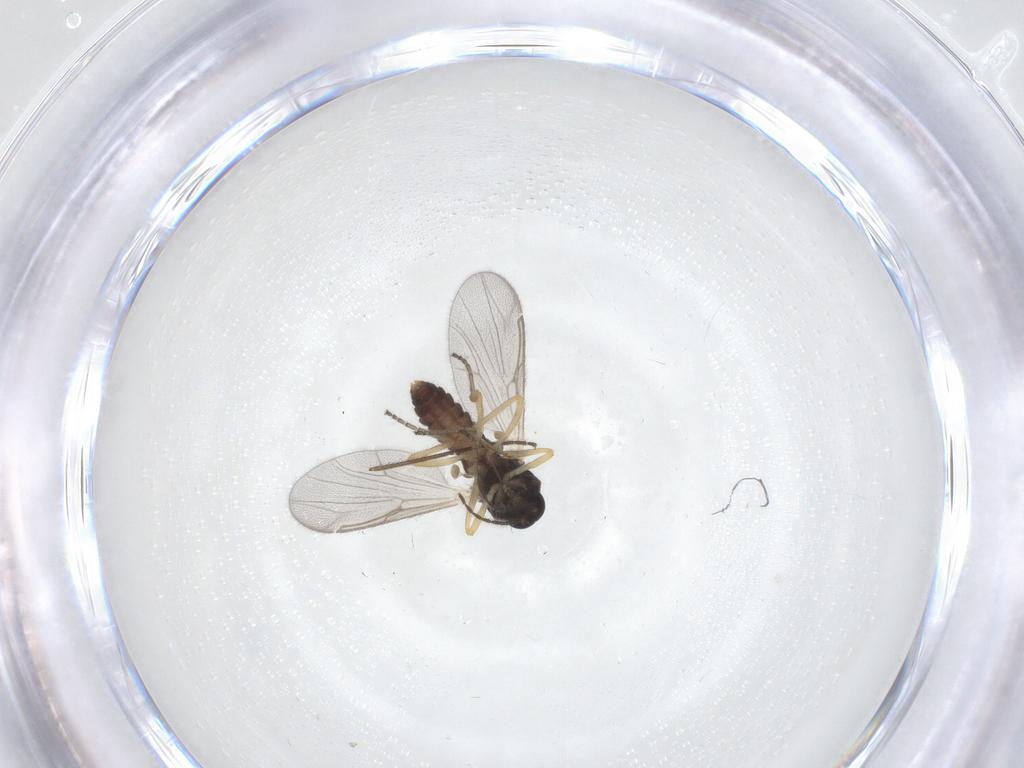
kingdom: Animalia
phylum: Arthropoda
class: Insecta
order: Diptera
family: Ceratopogonidae
